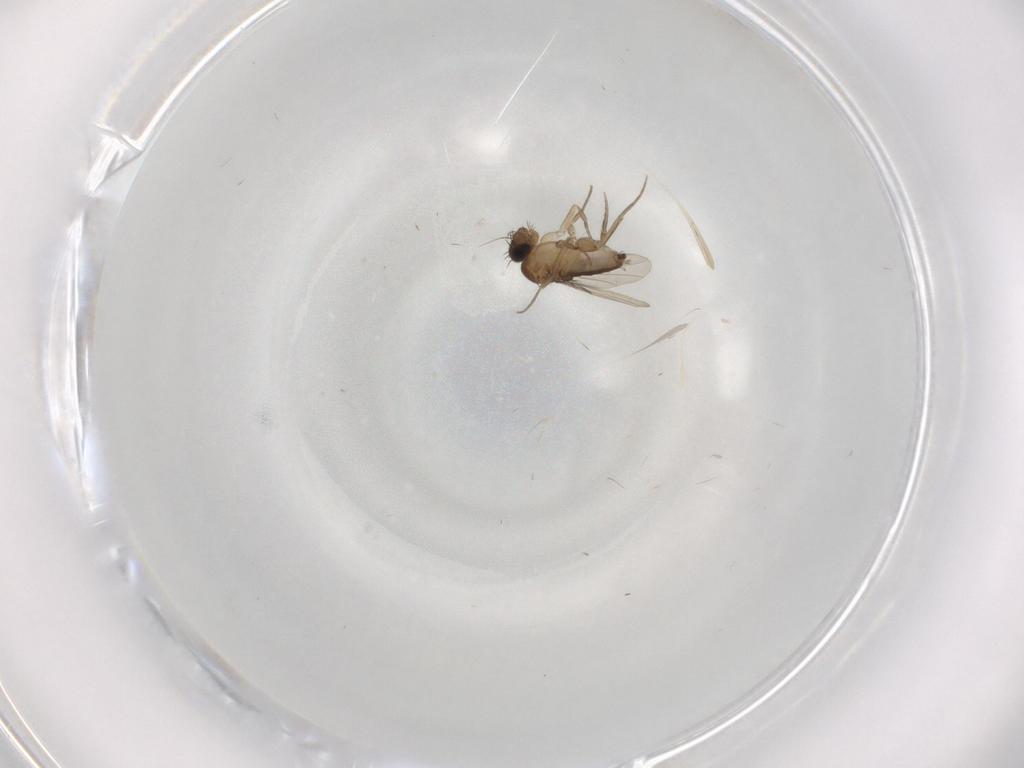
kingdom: Animalia
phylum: Arthropoda
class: Insecta
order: Diptera
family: Phoridae
